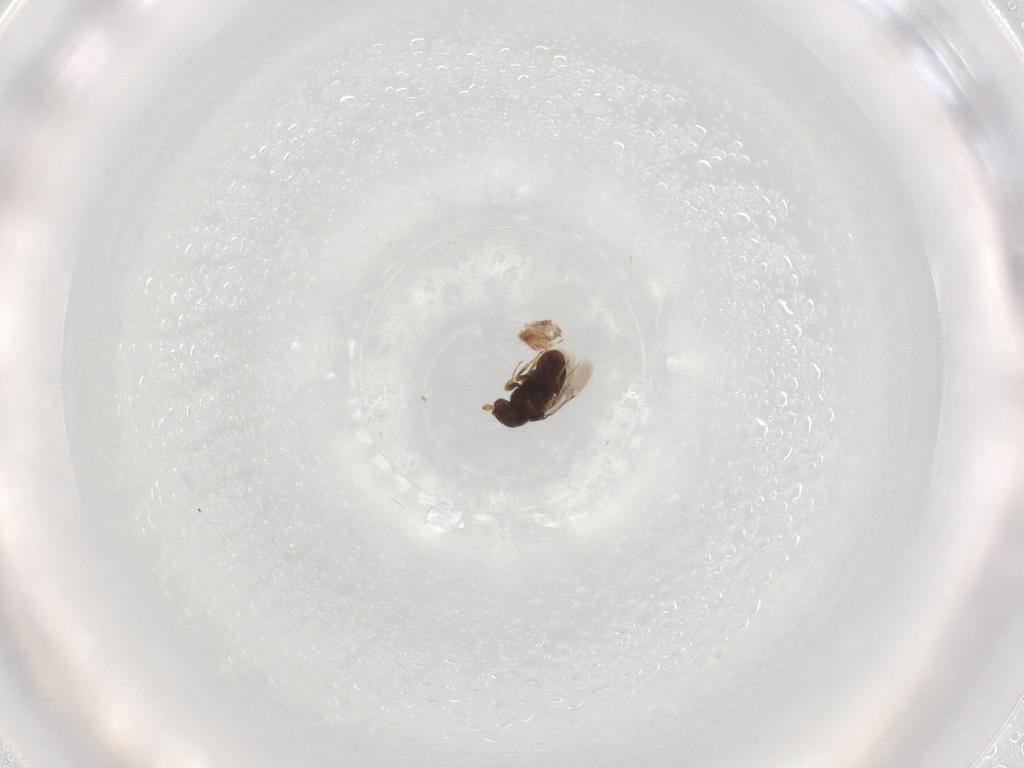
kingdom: Animalia
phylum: Arthropoda
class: Insecta
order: Hymenoptera
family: Scelionidae
